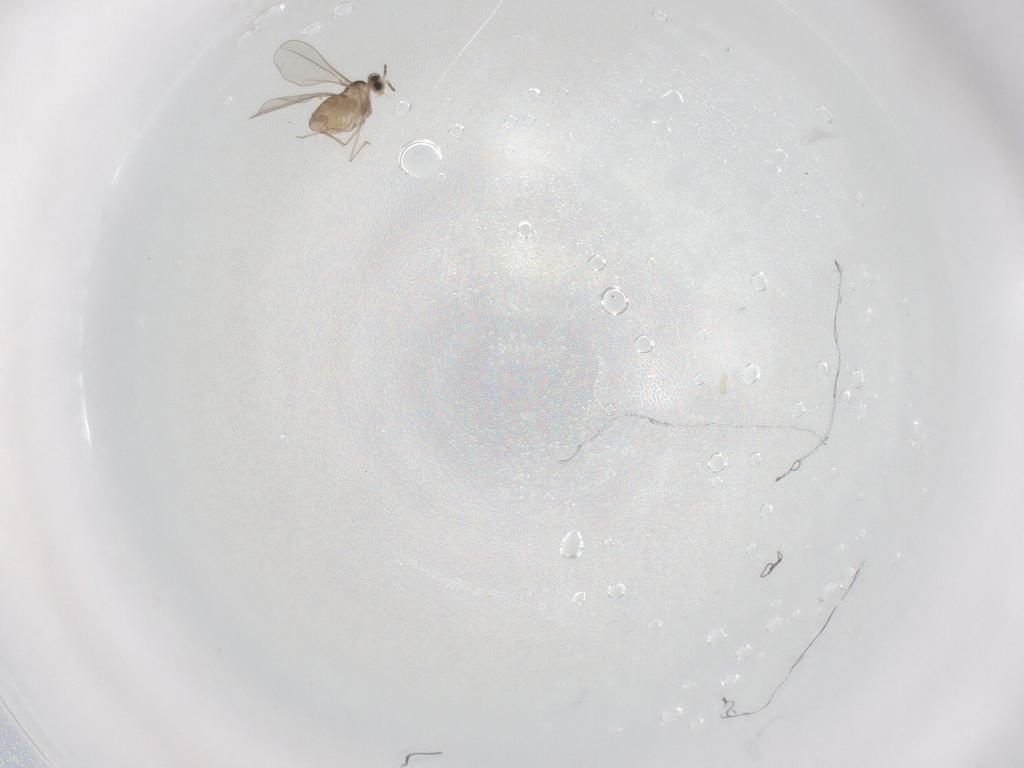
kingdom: Animalia
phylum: Arthropoda
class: Insecta
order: Diptera
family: Cecidomyiidae
